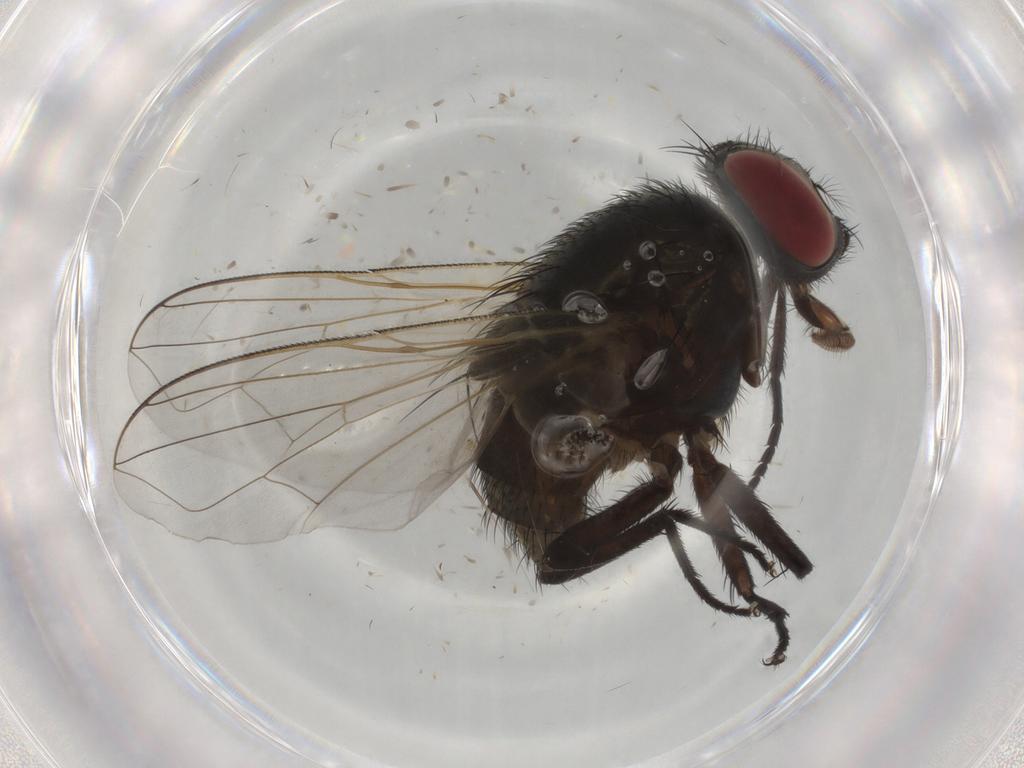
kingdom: Animalia
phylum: Arthropoda
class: Insecta
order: Diptera
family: Muscidae
